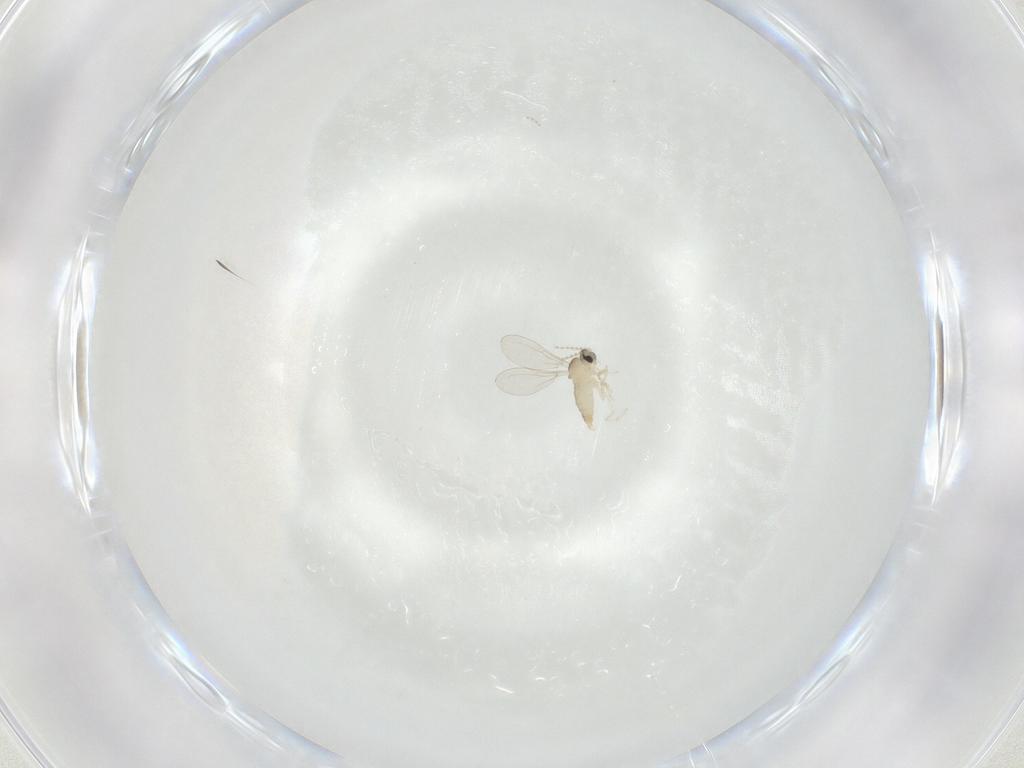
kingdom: Animalia
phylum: Arthropoda
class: Insecta
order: Diptera
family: Cecidomyiidae
